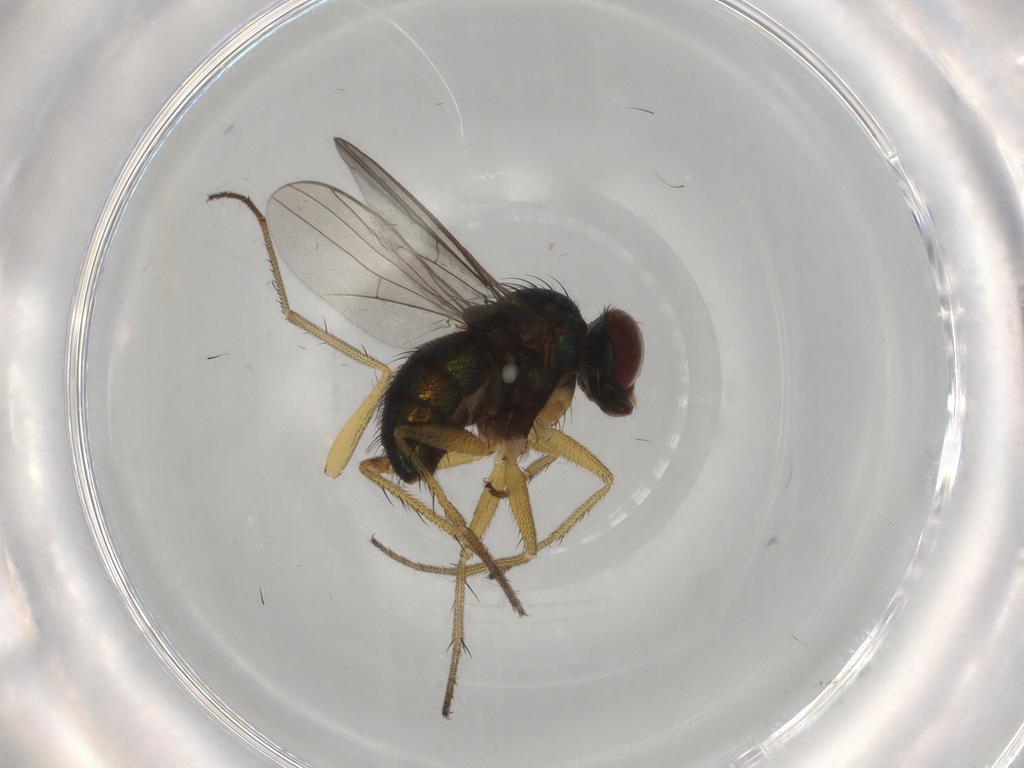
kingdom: Animalia
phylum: Arthropoda
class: Insecta
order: Diptera
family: Dolichopodidae
